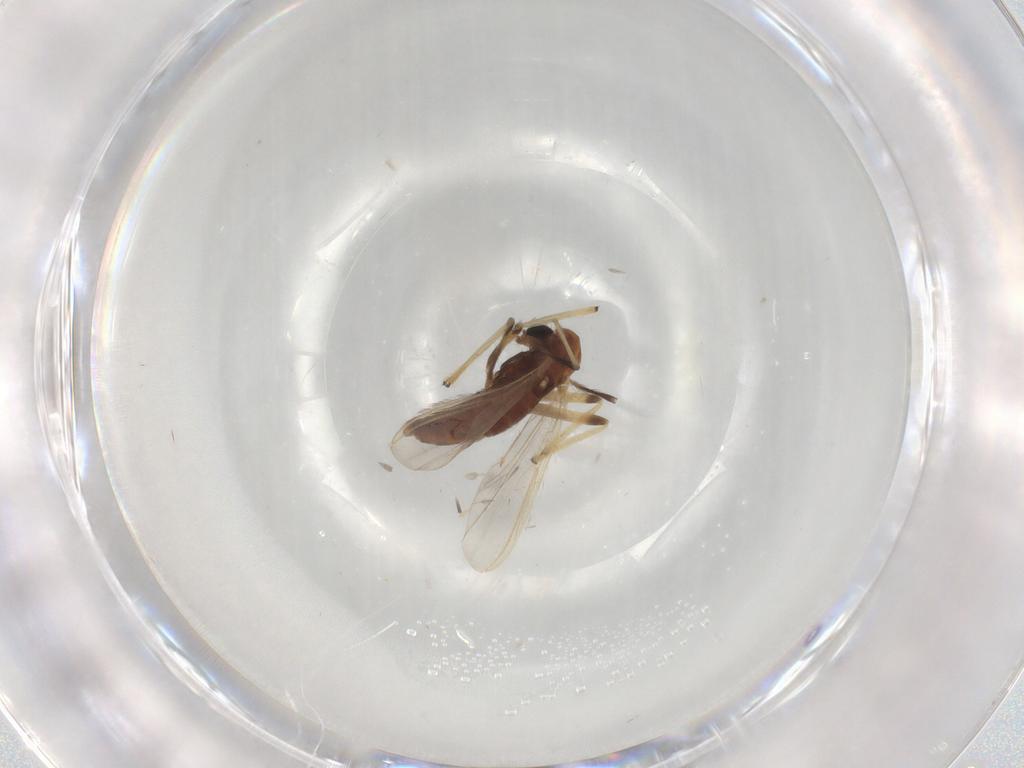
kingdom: Animalia
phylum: Arthropoda
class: Insecta
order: Diptera
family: Chironomidae
